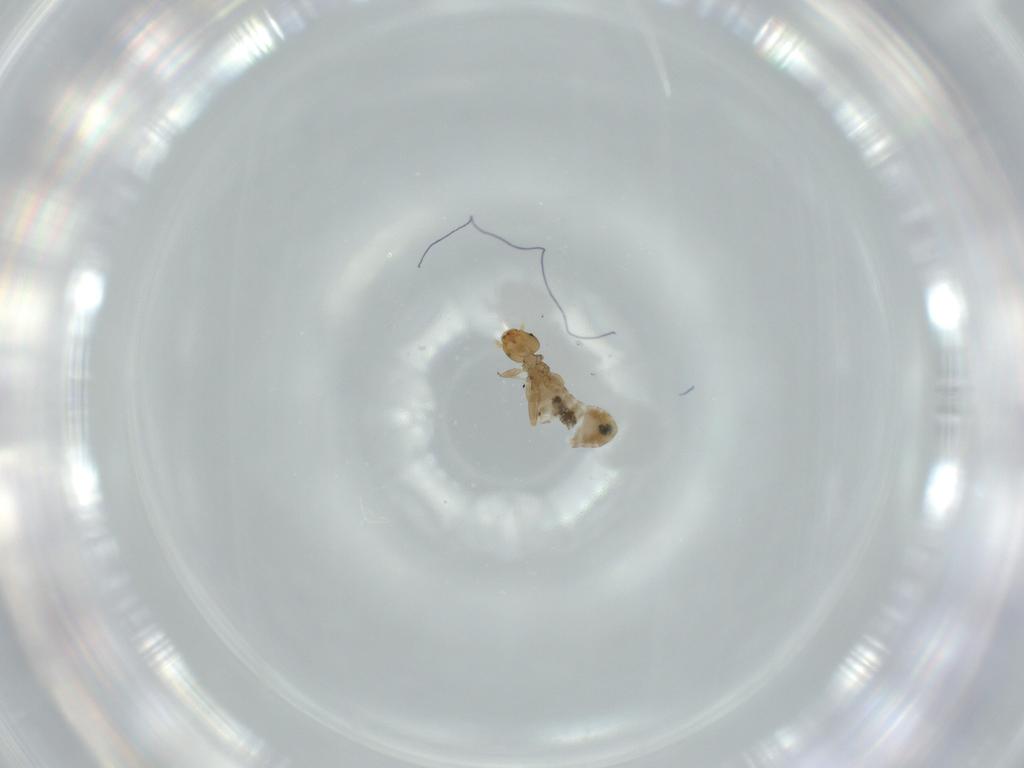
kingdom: Animalia
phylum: Arthropoda
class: Insecta
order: Psocodea
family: Liposcelididae
